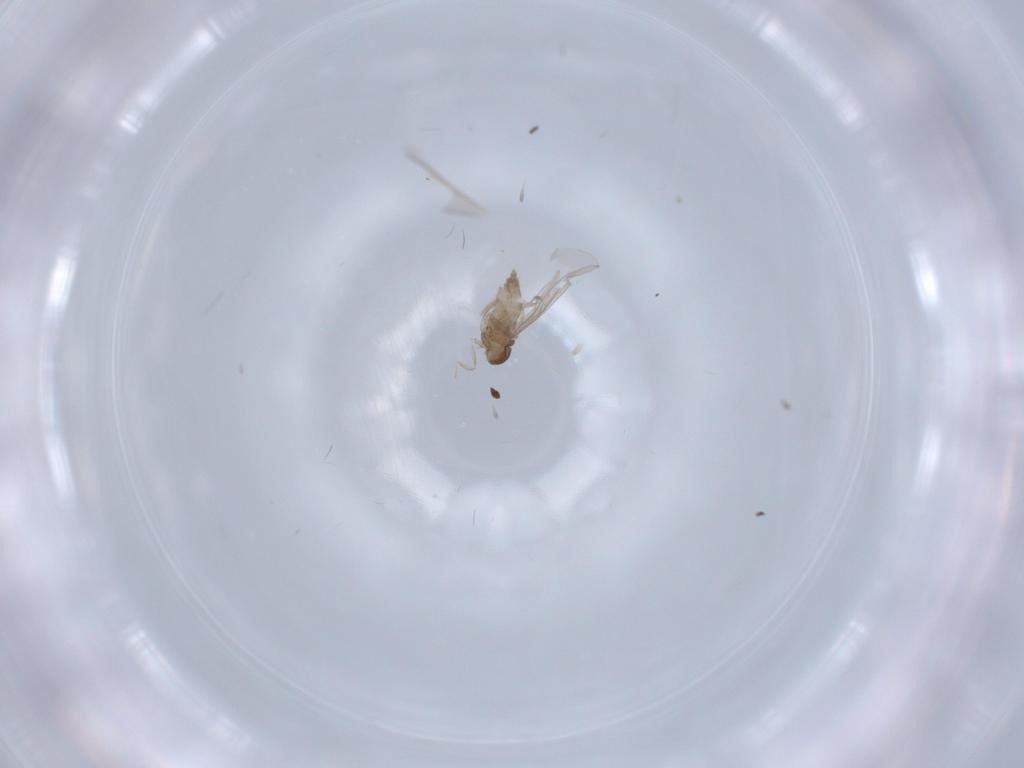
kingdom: Animalia
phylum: Arthropoda
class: Insecta
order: Diptera
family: Cecidomyiidae
